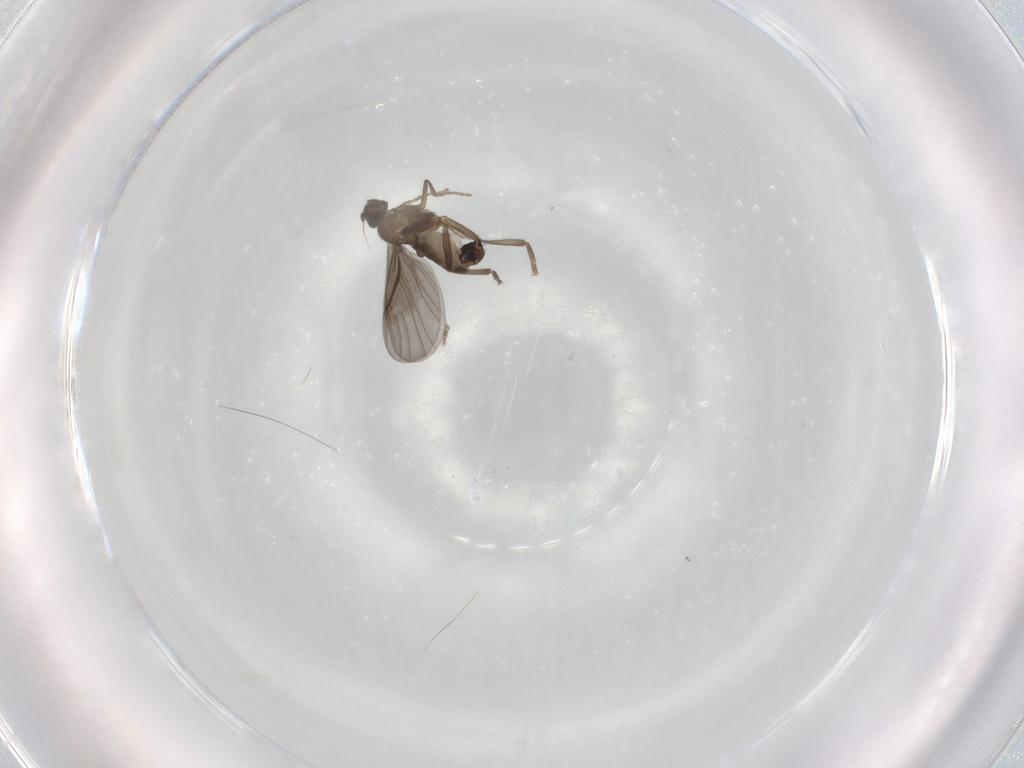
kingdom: Animalia
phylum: Arthropoda
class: Insecta
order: Diptera
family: Phoridae
